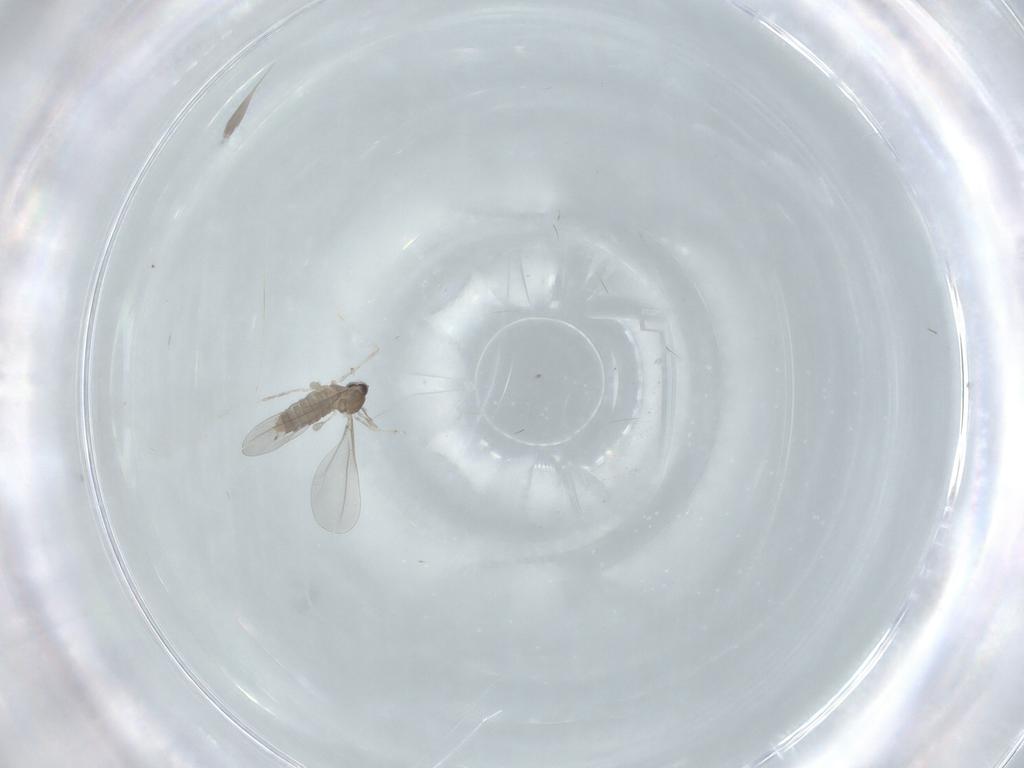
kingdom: Animalia
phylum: Arthropoda
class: Insecta
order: Diptera
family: Cecidomyiidae
